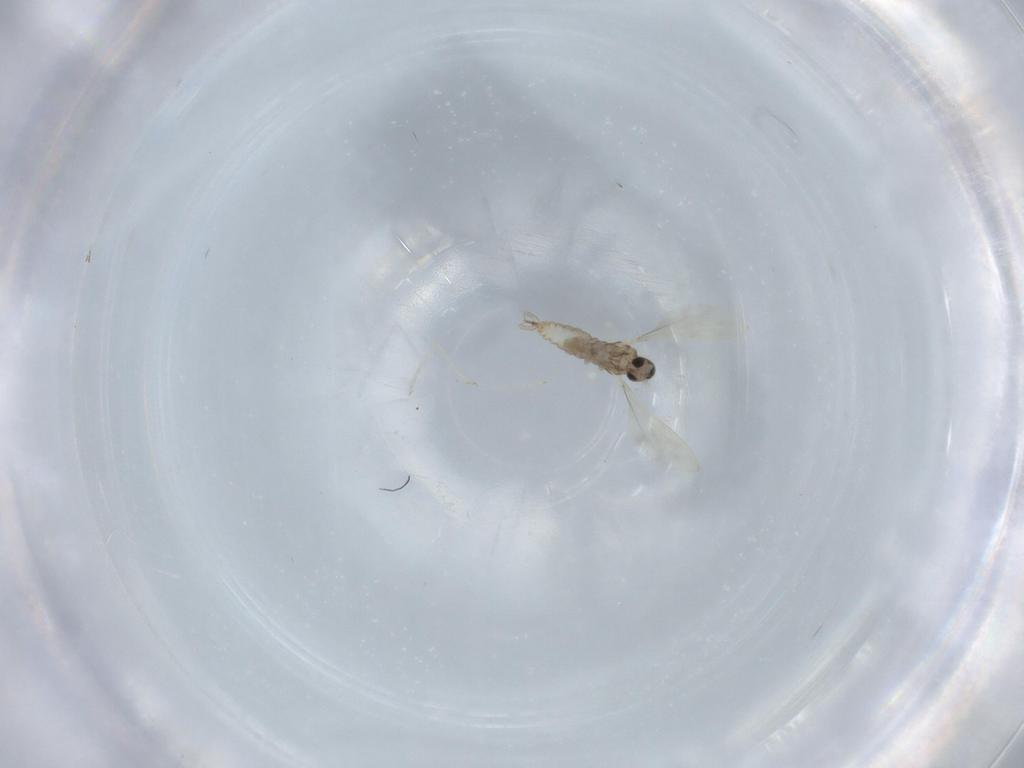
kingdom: Animalia
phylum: Arthropoda
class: Insecta
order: Diptera
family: Cecidomyiidae
